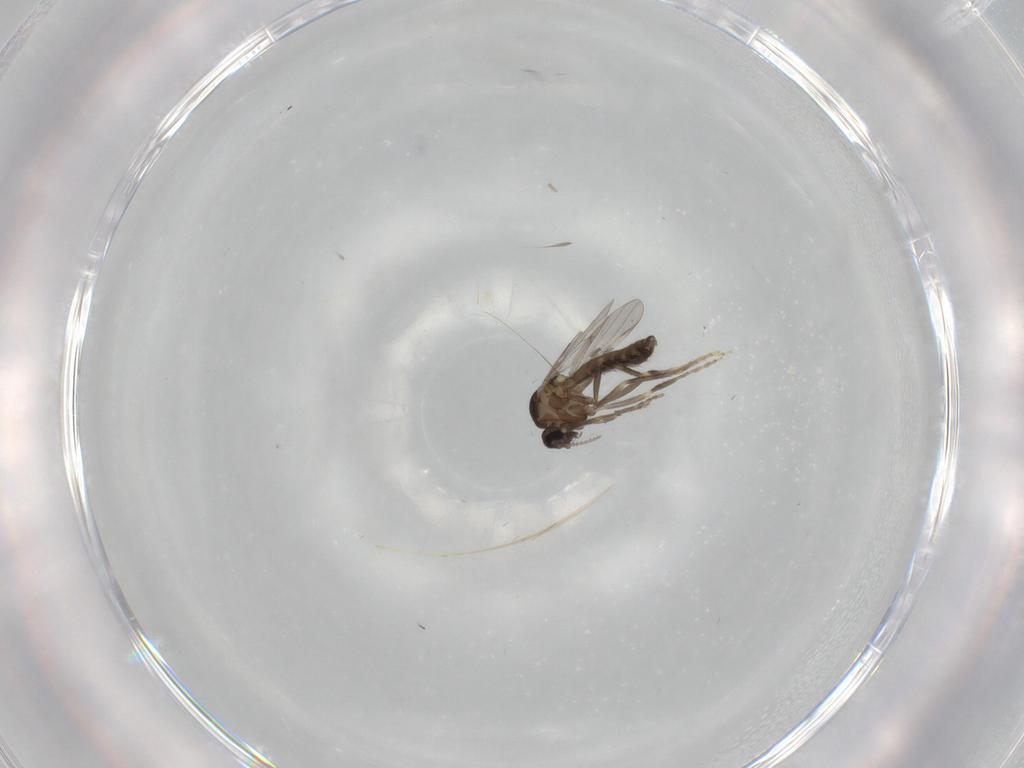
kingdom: Animalia
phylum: Arthropoda
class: Insecta
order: Diptera
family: Ceratopogonidae
